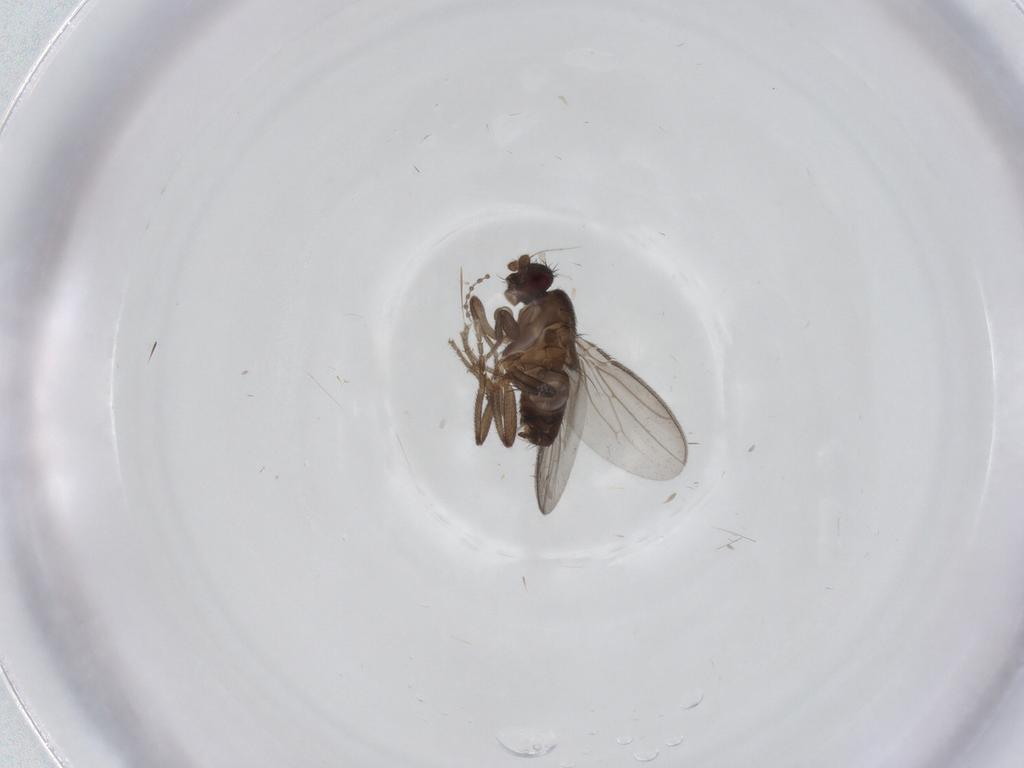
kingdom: Animalia
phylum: Arthropoda
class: Insecta
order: Diptera
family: Sphaeroceridae
